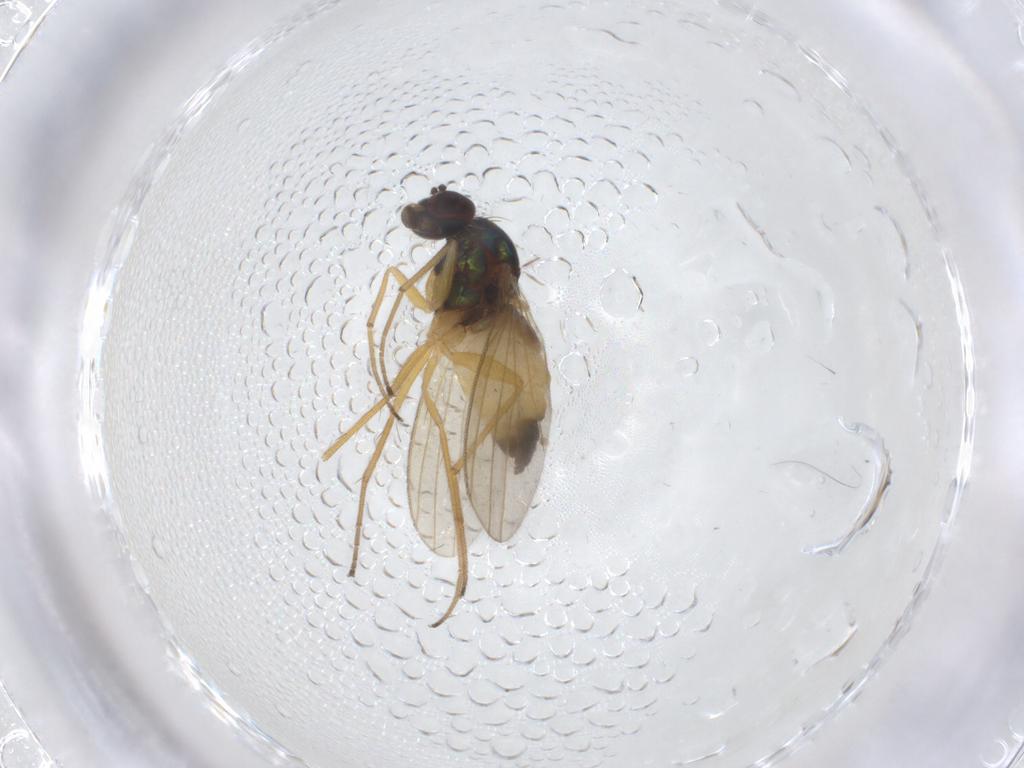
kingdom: Animalia
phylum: Arthropoda
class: Insecta
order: Diptera
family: Dolichopodidae
